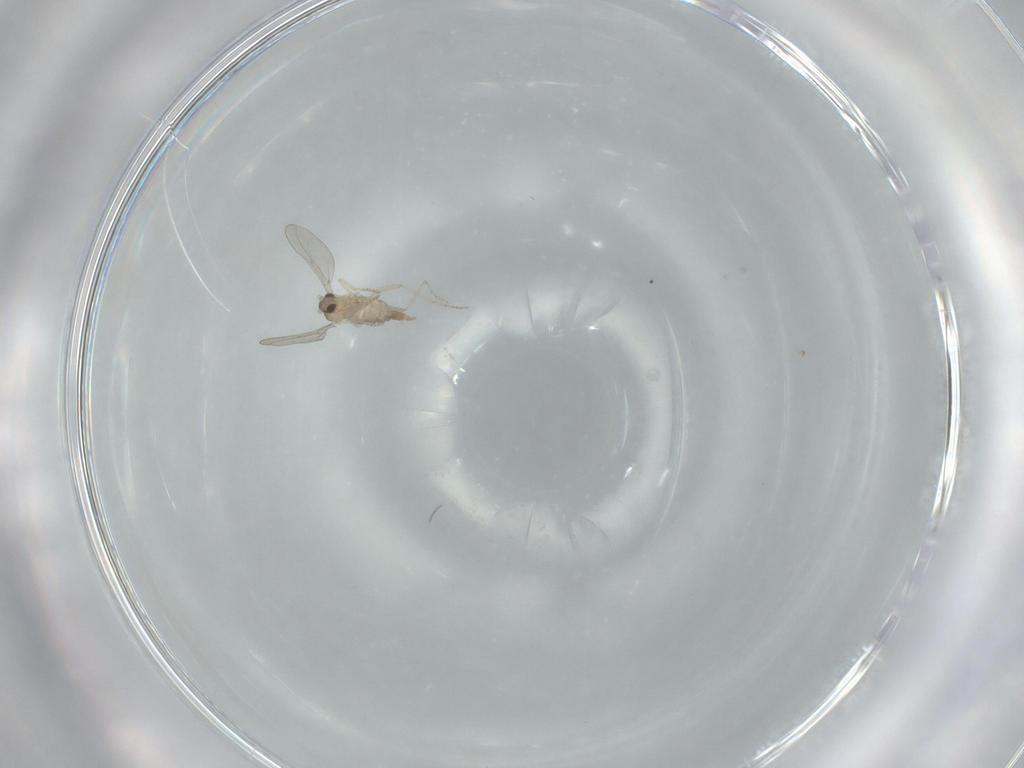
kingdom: Animalia
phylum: Arthropoda
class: Insecta
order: Diptera
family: Cecidomyiidae
